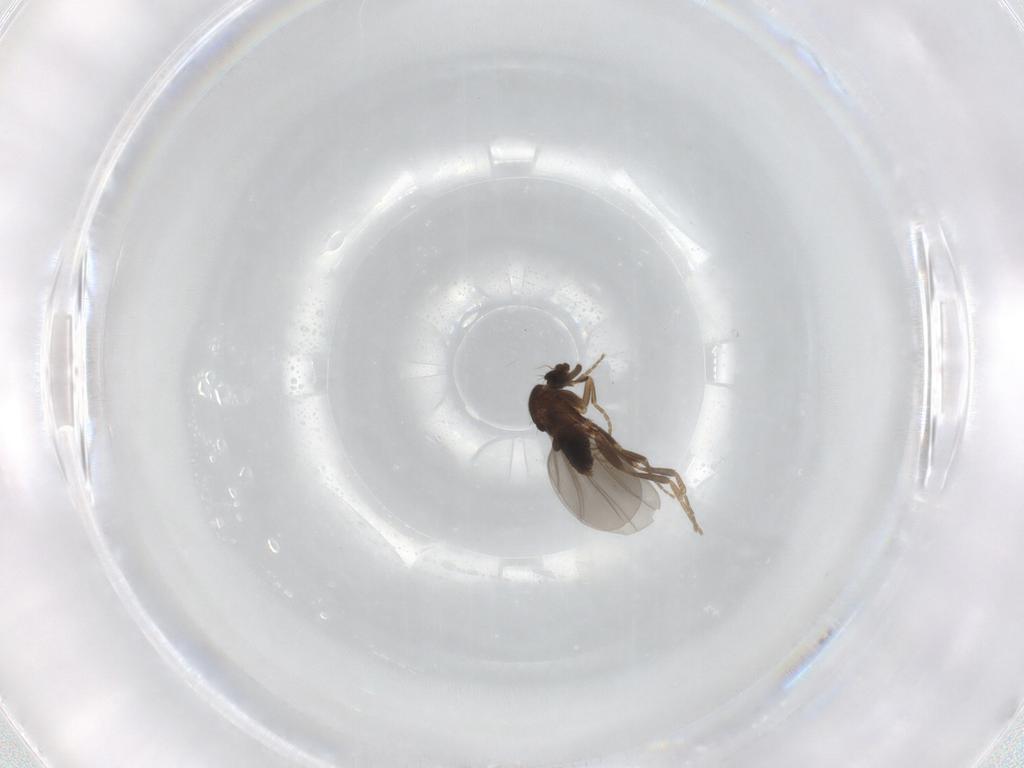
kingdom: Animalia
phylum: Arthropoda
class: Insecta
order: Diptera
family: Cecidomyiidae
